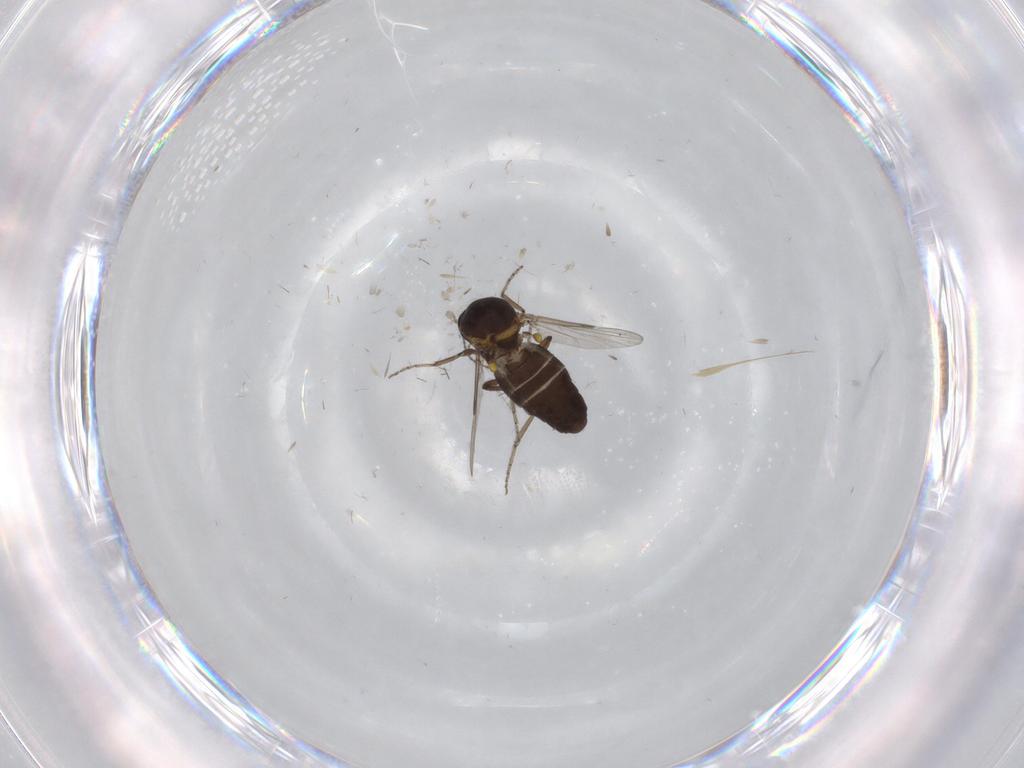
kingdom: Animalia
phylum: Arthropoda
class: Insecta
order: Diptera
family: Ceratopogonidae
